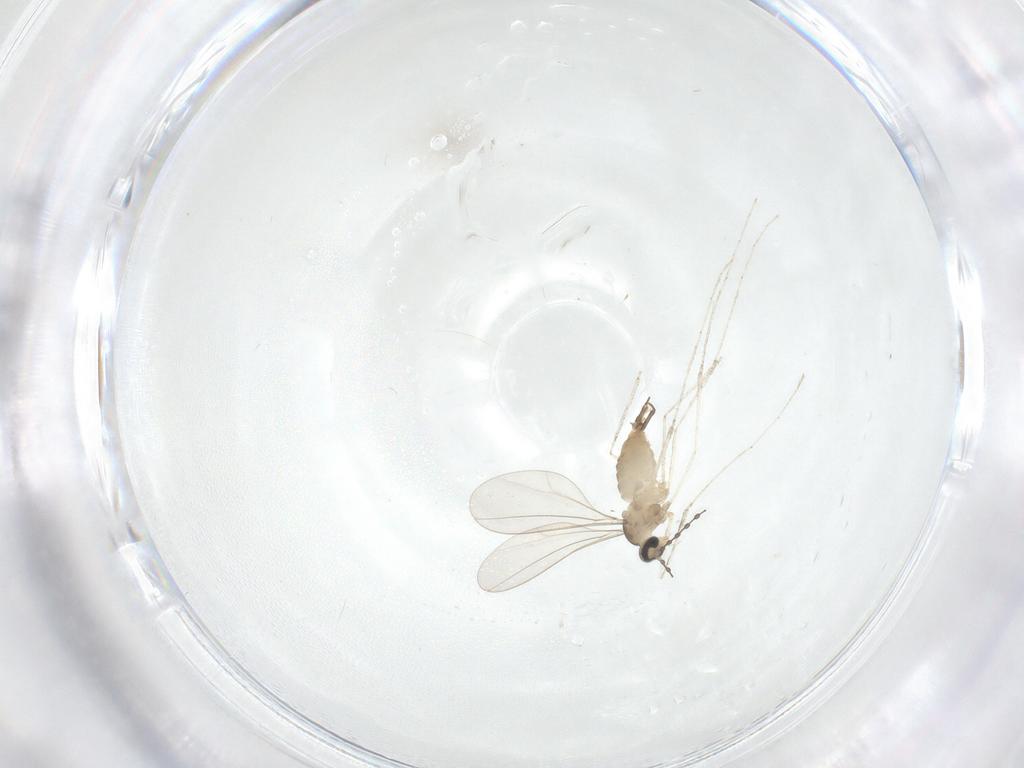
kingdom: Animalia
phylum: Arthropoda
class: Insecta
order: Diptera
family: Cecidomyiidae
